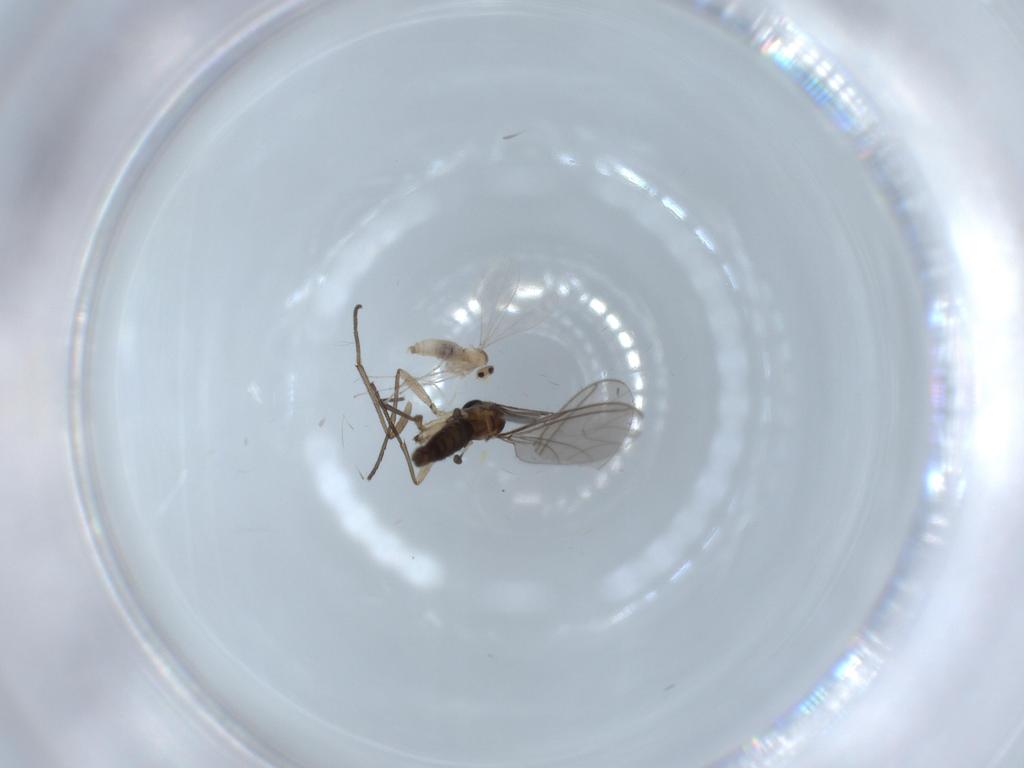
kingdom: Animalia
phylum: Arthropoda
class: Insecta
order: Diptera
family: Sciaridae
